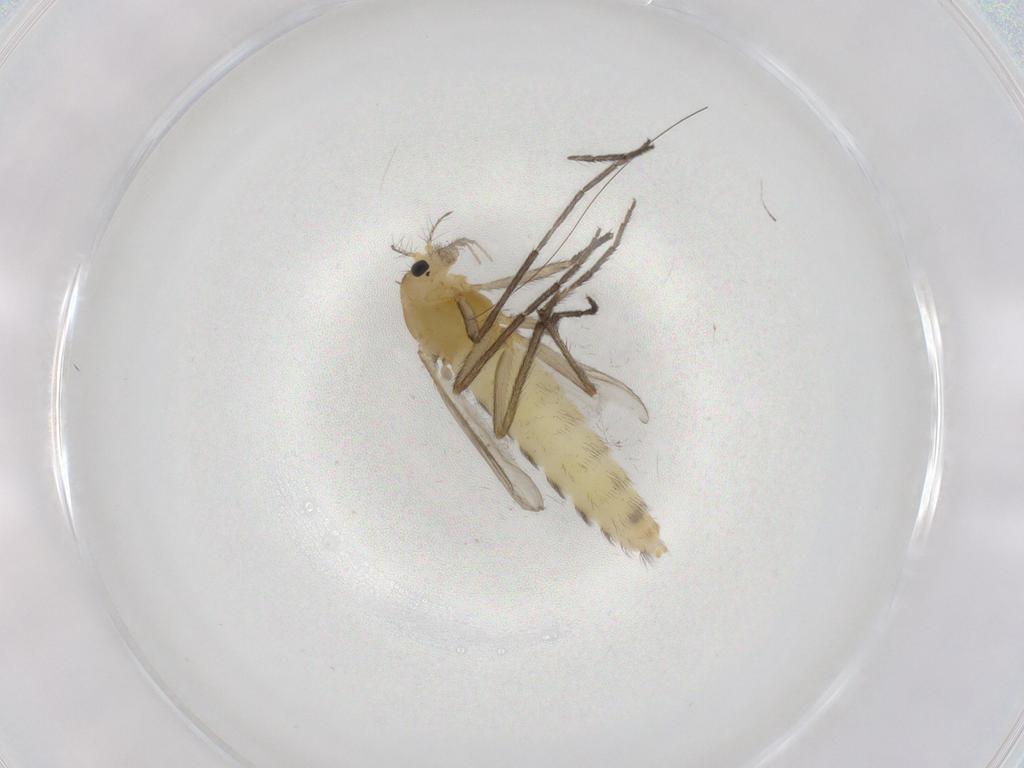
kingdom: Animalia
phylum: Arthropoda
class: Insecta
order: Diptera
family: Chironomidae
